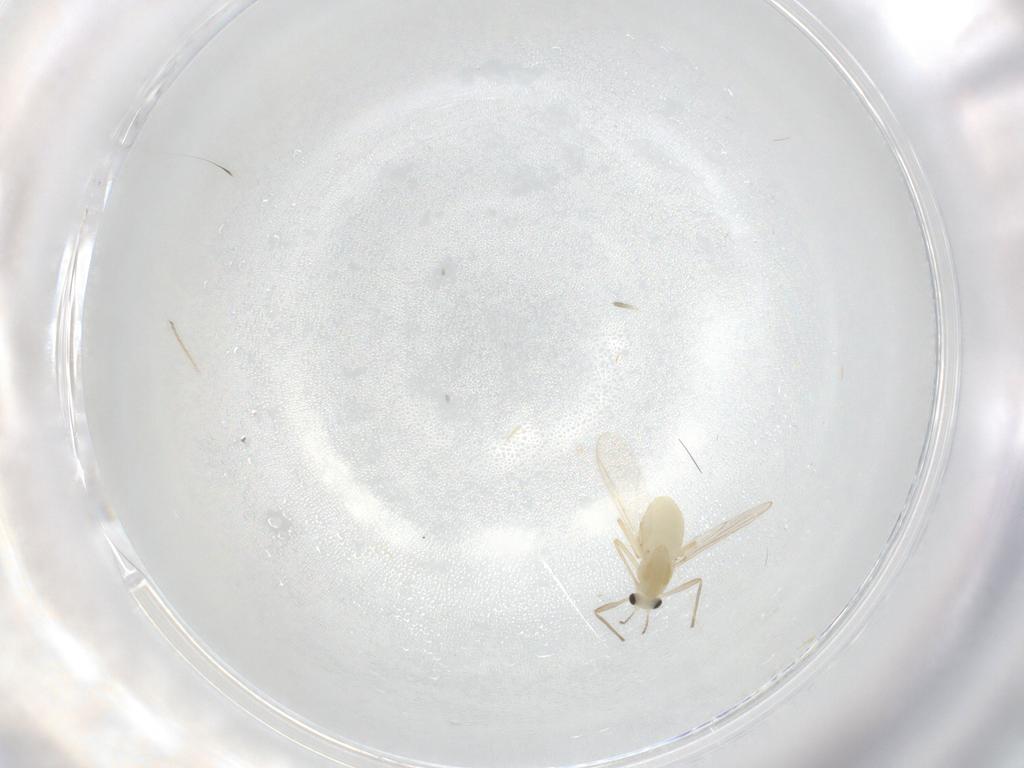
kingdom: Animalia
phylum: Arthropoda
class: Insecta
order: Diptera
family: Chironomidae
